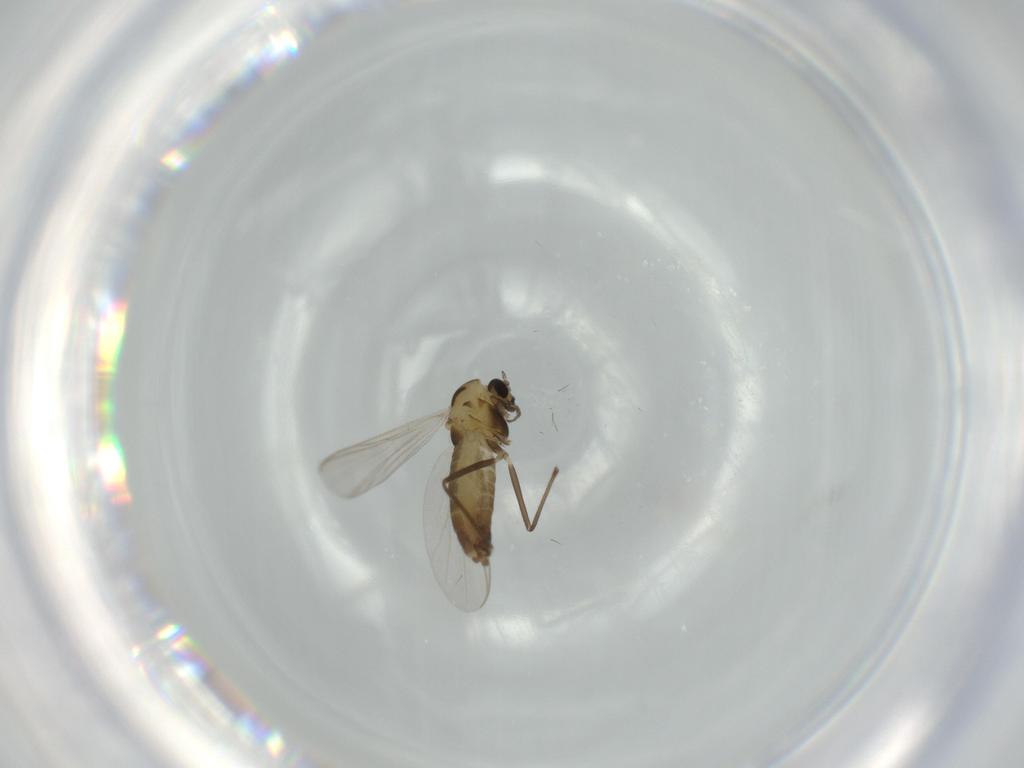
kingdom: Animalia
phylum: Arthropoda
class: Insecta
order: Diptera
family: Chironomidae
